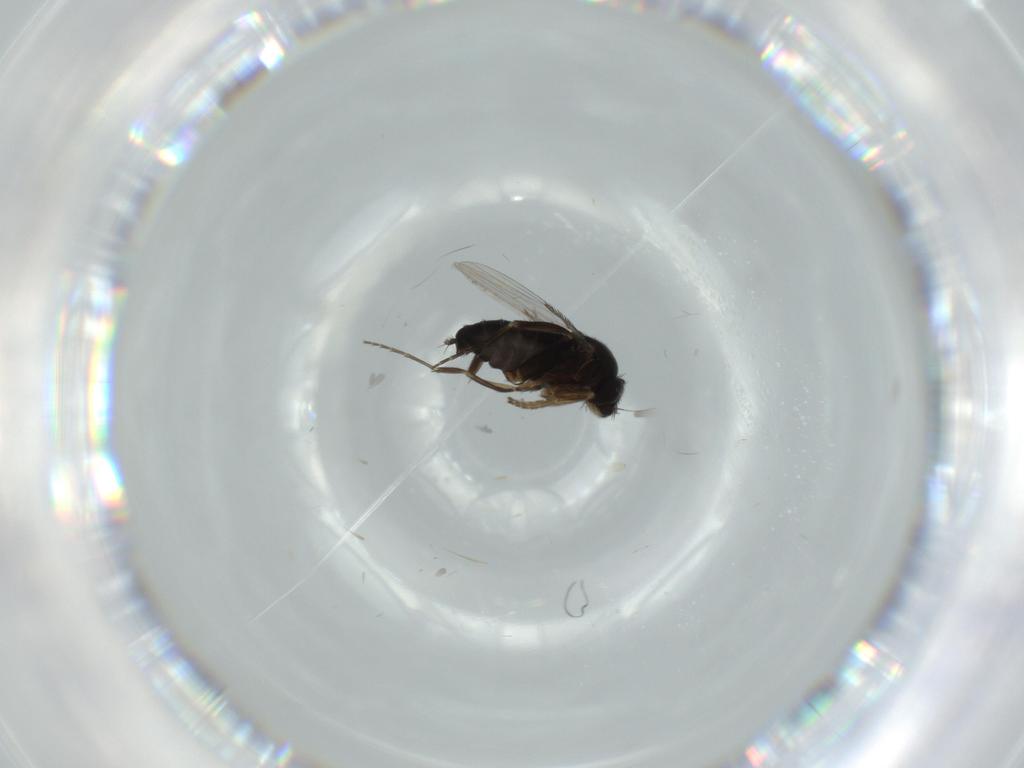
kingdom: Animalia
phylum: Arthropoda
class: Insecta
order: Diptera
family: Phoridae
